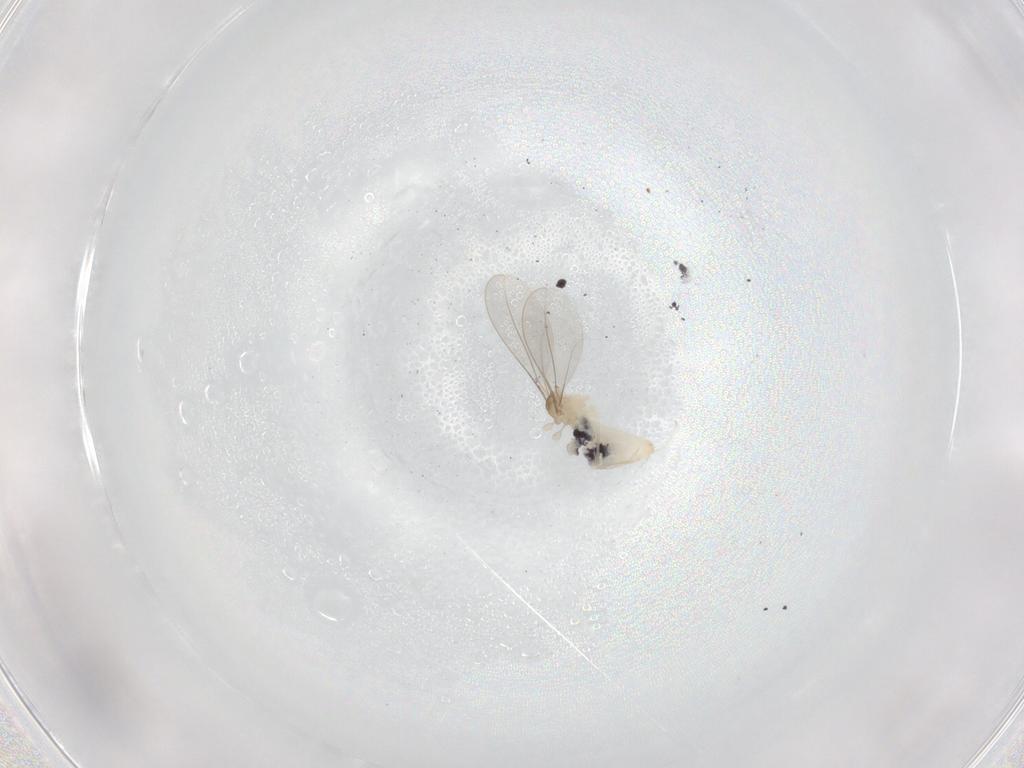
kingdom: Animalia
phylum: Arthropoda
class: Insecta
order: Diptera
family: Cecidomyiidae
